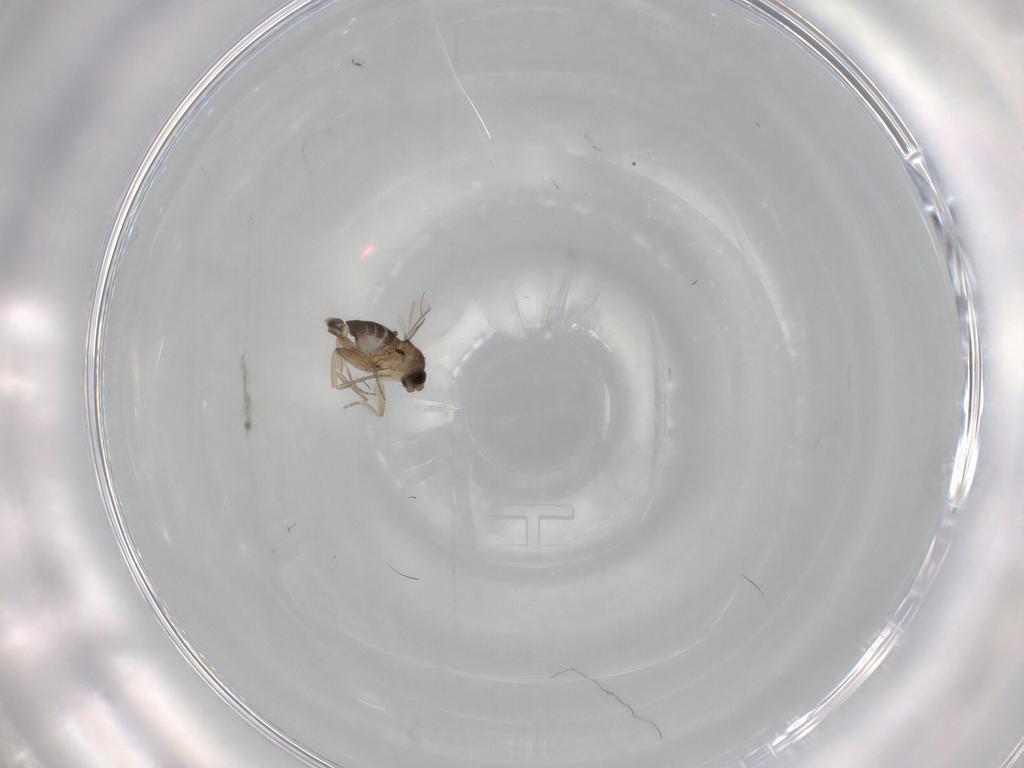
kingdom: Animalia
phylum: Arthropoda
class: Insecta
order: Diptera
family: Phoridae
